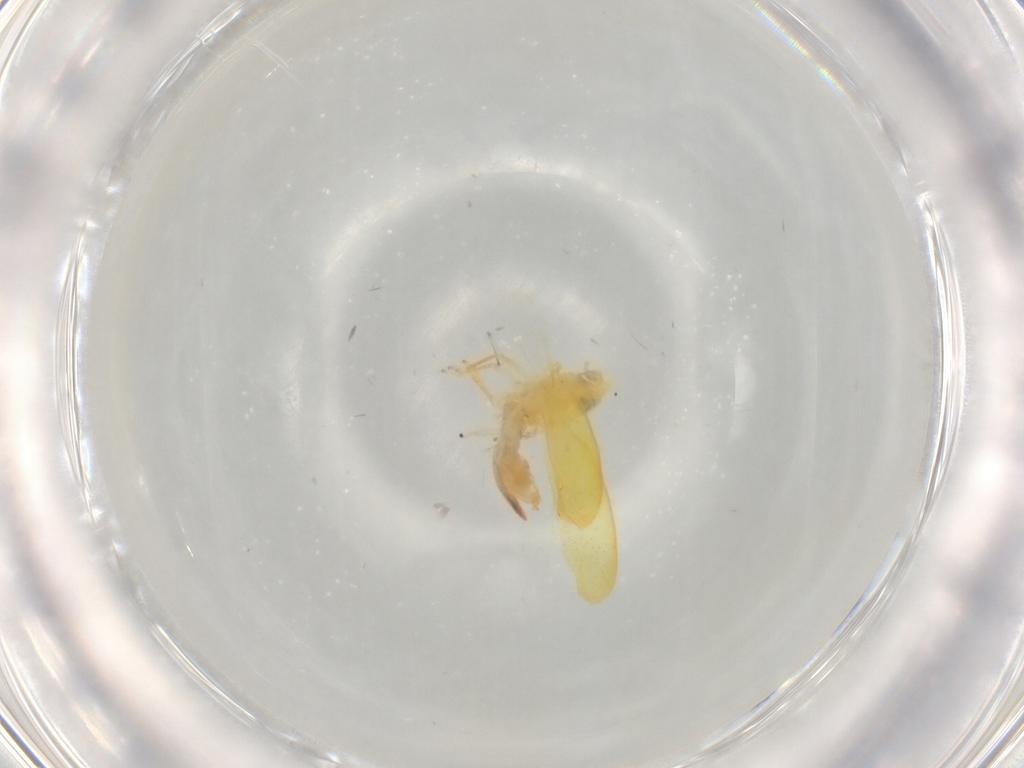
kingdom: Animalia
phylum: Arthropoda
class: Insecta
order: Hemiptera
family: Cicadellidae
